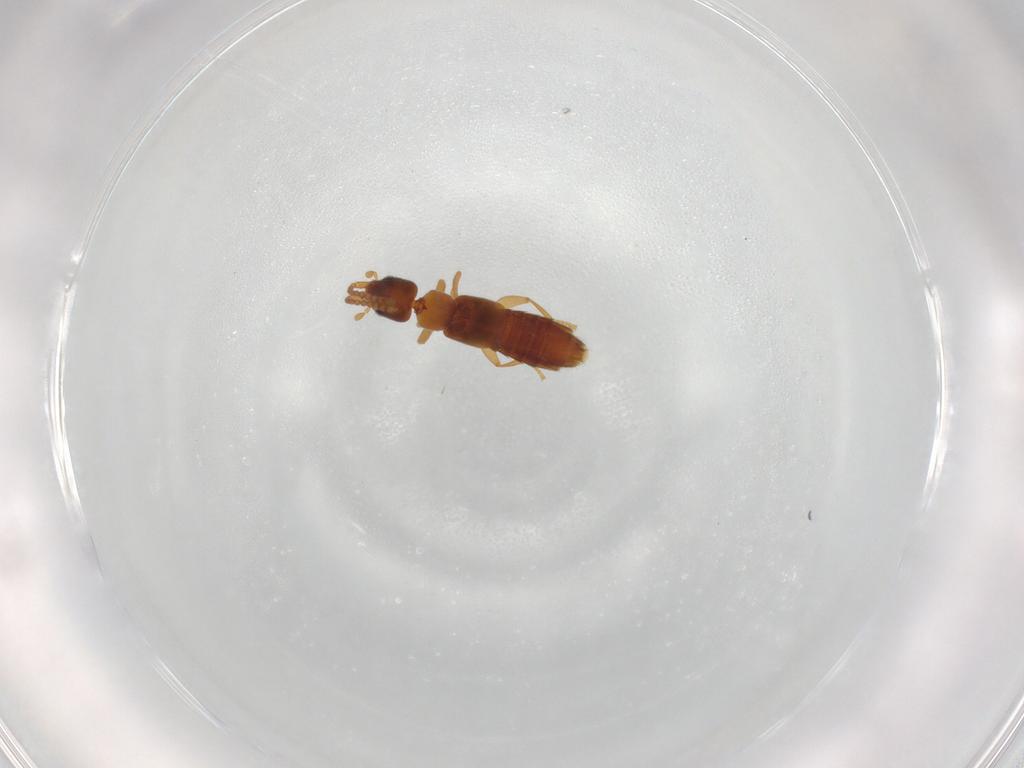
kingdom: Animalia
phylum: Arthropoda
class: Insecta
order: Coleoptera
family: Staphylinidae
